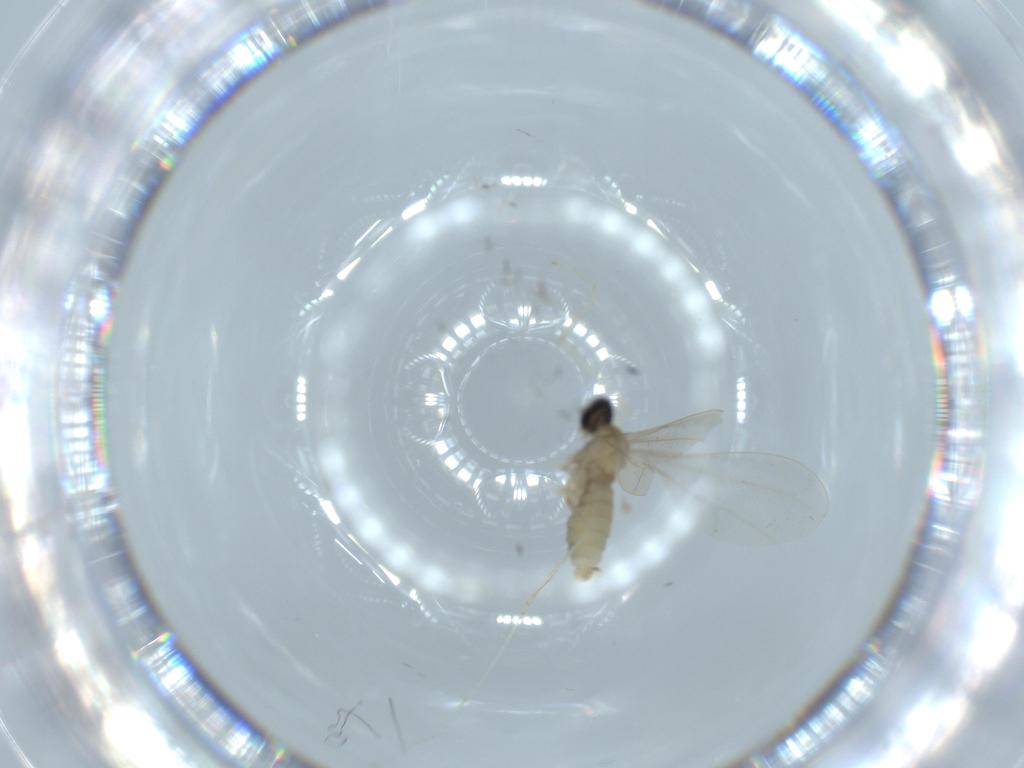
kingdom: Animalia
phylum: Arthropoda
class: Insecta
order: Diptera
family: Cecidomyiidae
